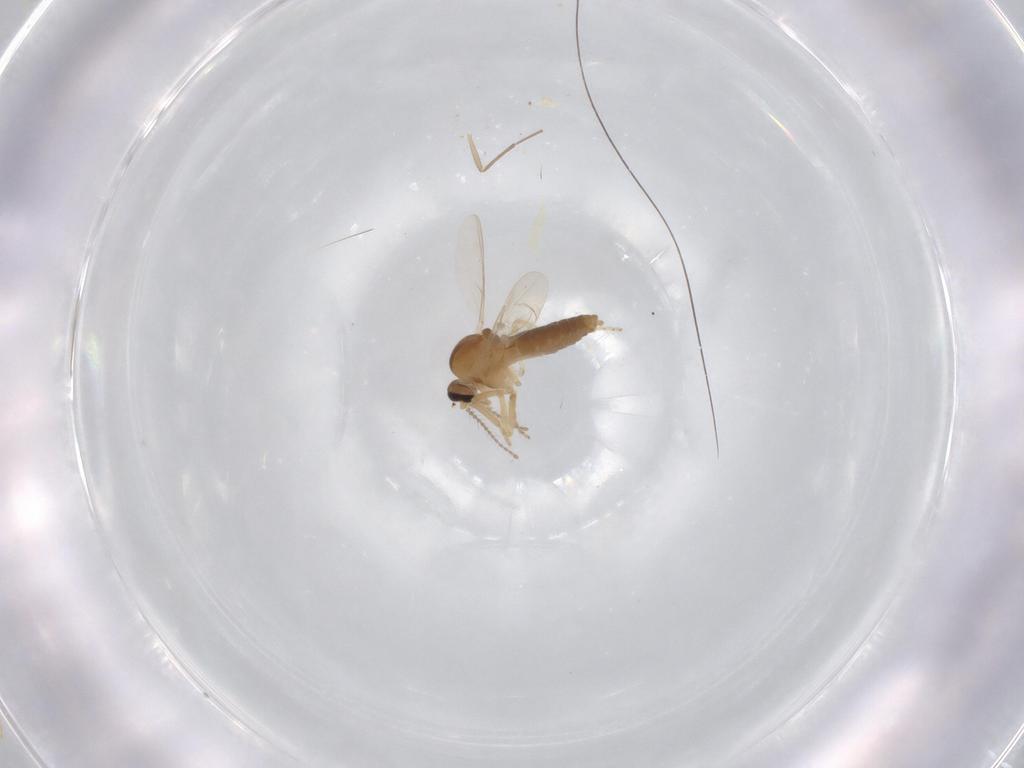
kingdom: Animalia
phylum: Arthropoda
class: Insecta
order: Diptera
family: Ceratopogonidae
